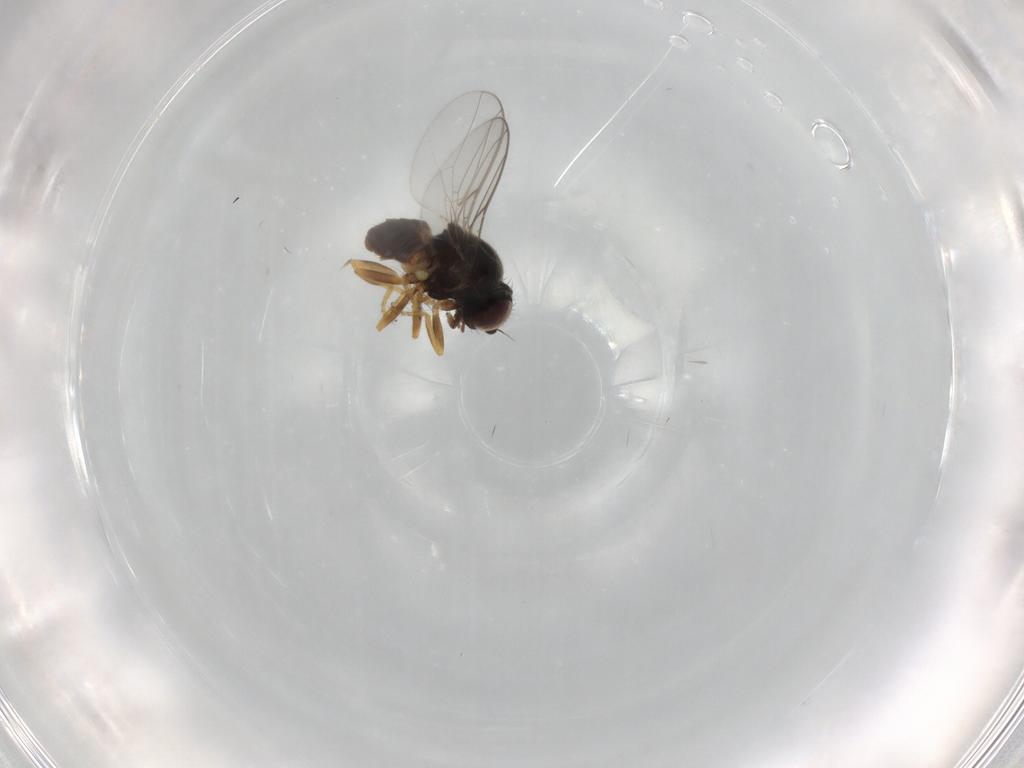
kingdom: Animalia
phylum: Arthropoda
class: Insecta
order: Diptera
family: Chloropidae
